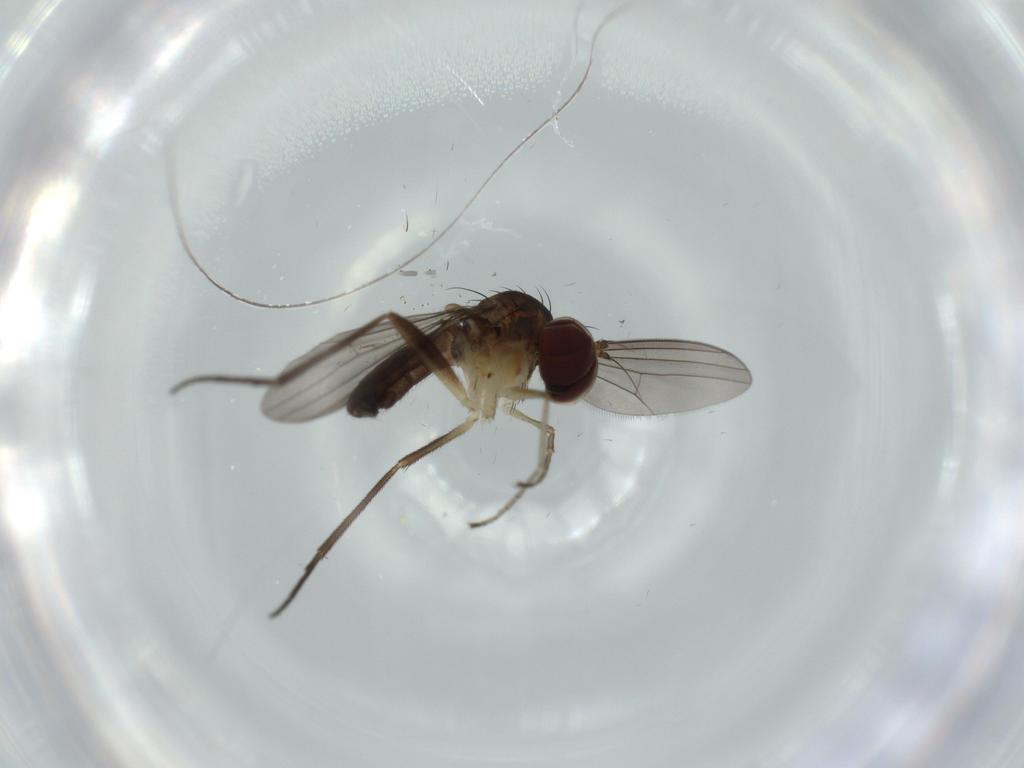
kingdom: Animalia
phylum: Arthropoda
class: Insecta
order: Diptera
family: Dolichopodidae
